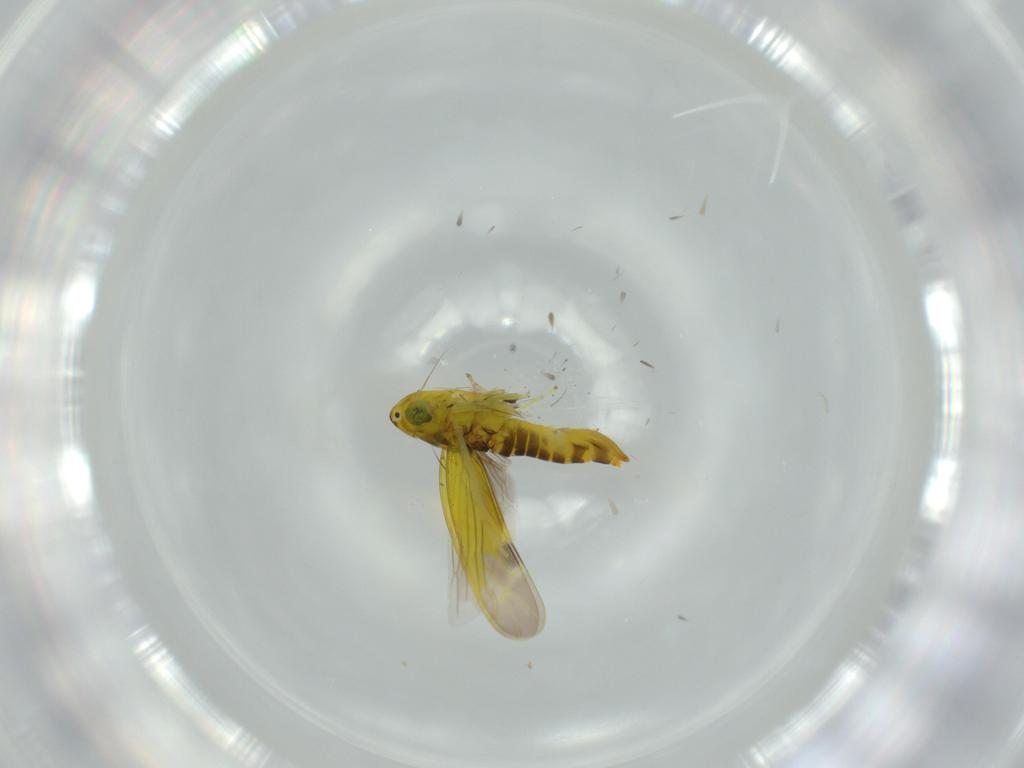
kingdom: Animalia
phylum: Arthropoda
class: Insecta
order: Hemiptera
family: Cicadellidae
